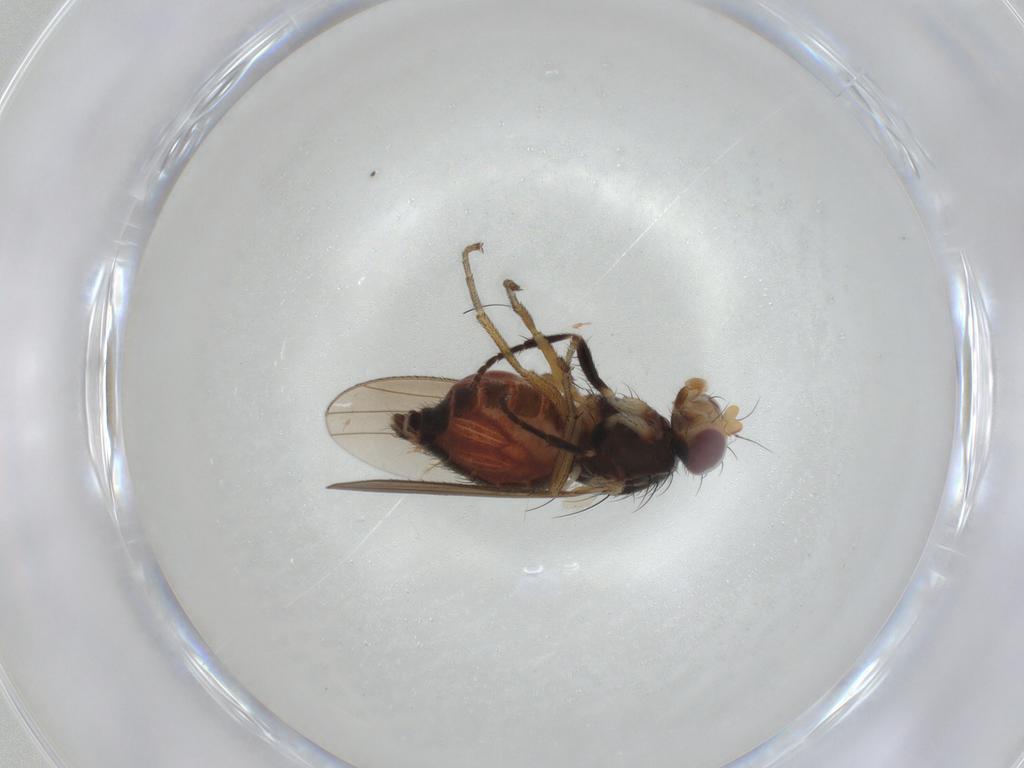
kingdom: Animalia
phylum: Arthropoda
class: Insecta
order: Diptera
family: Heleomyzidae
